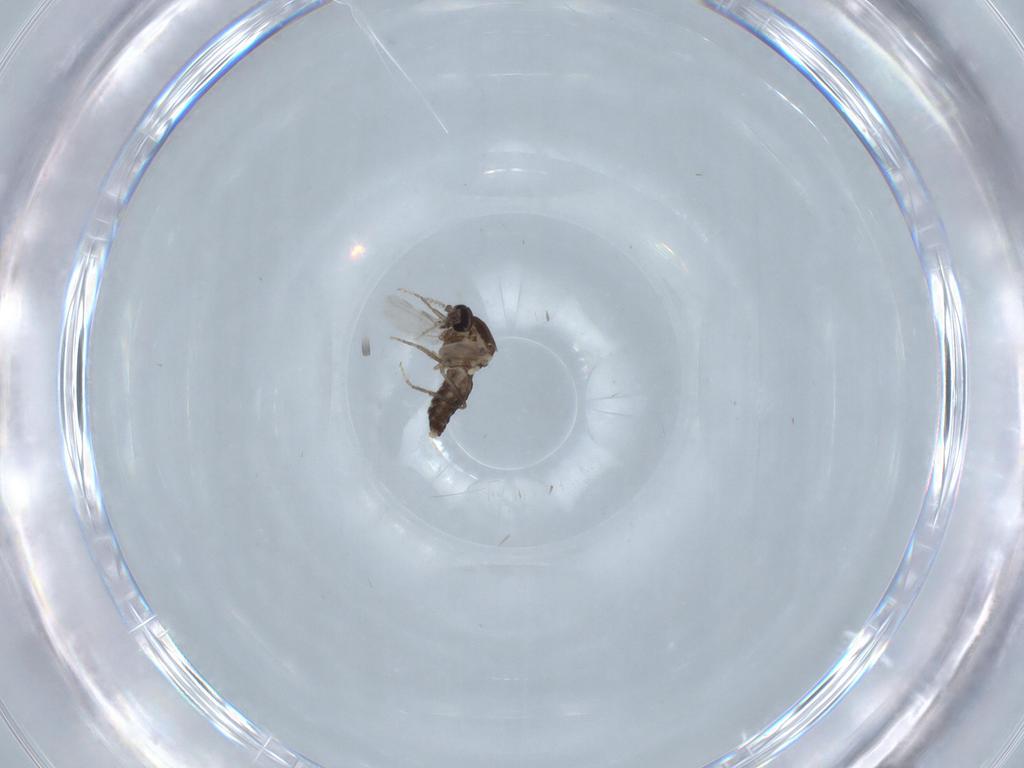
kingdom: Animalia
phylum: Arthropoda
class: Insecta
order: Diptera
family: Ceratopogonidae
